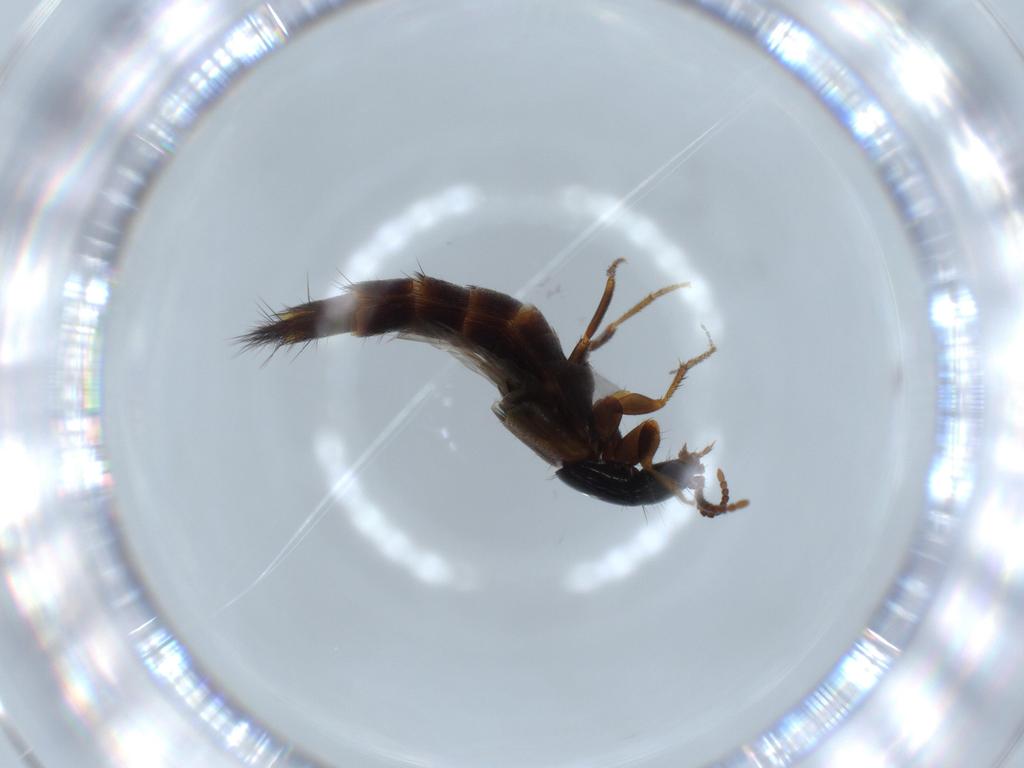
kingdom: Animalia
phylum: Arthropoda
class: Insecta
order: Coleoptera
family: Staphylinidae
